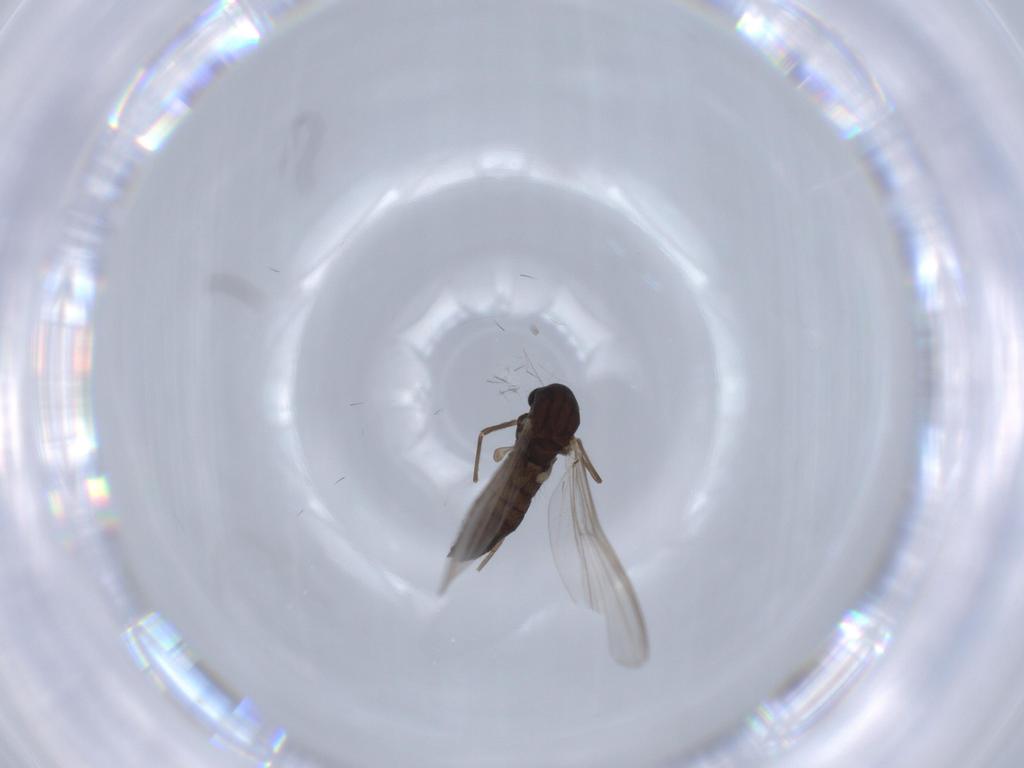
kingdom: Animalia
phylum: Arthropoda
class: Insecta
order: Diptera
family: Chironomidae
